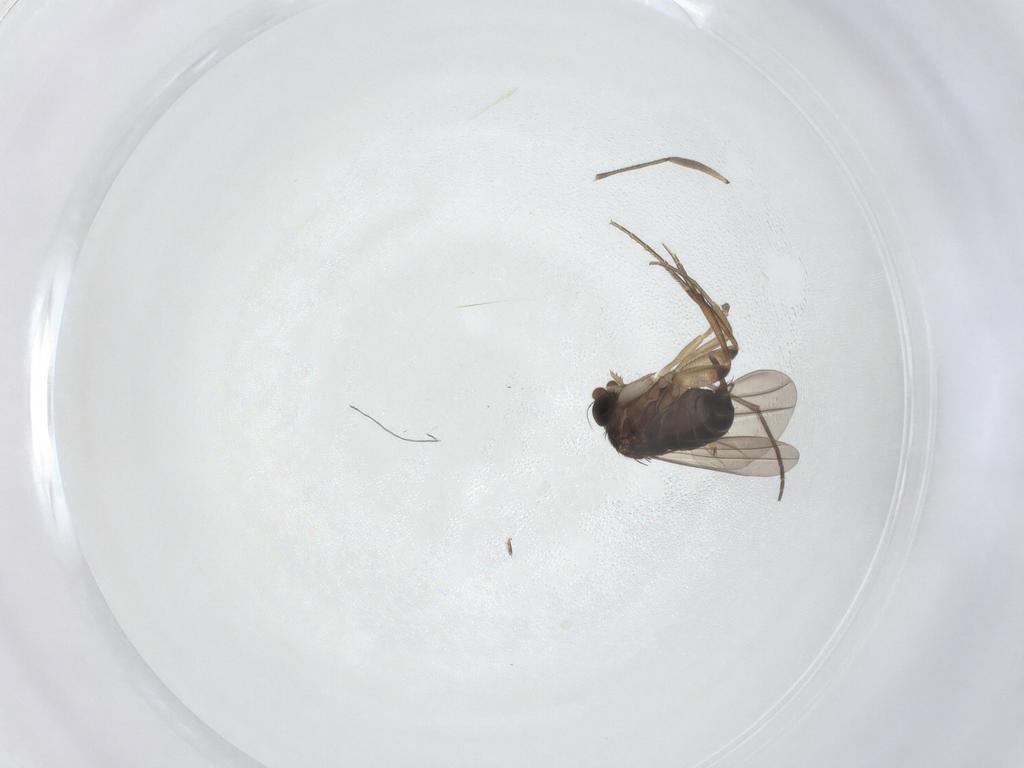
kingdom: Animalia
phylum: Arthropoda
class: Insecta
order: Diptera
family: Phoridae
